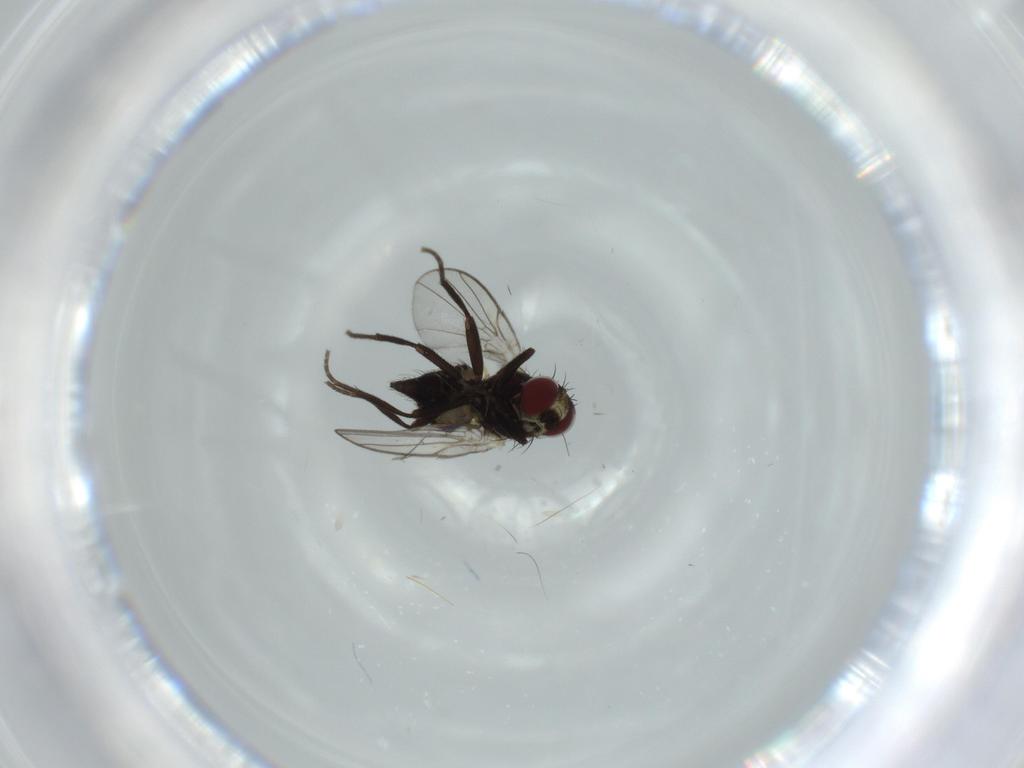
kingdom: Animalia
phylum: Arthropoda
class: Insecta
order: Diptera
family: Agromyzidae
